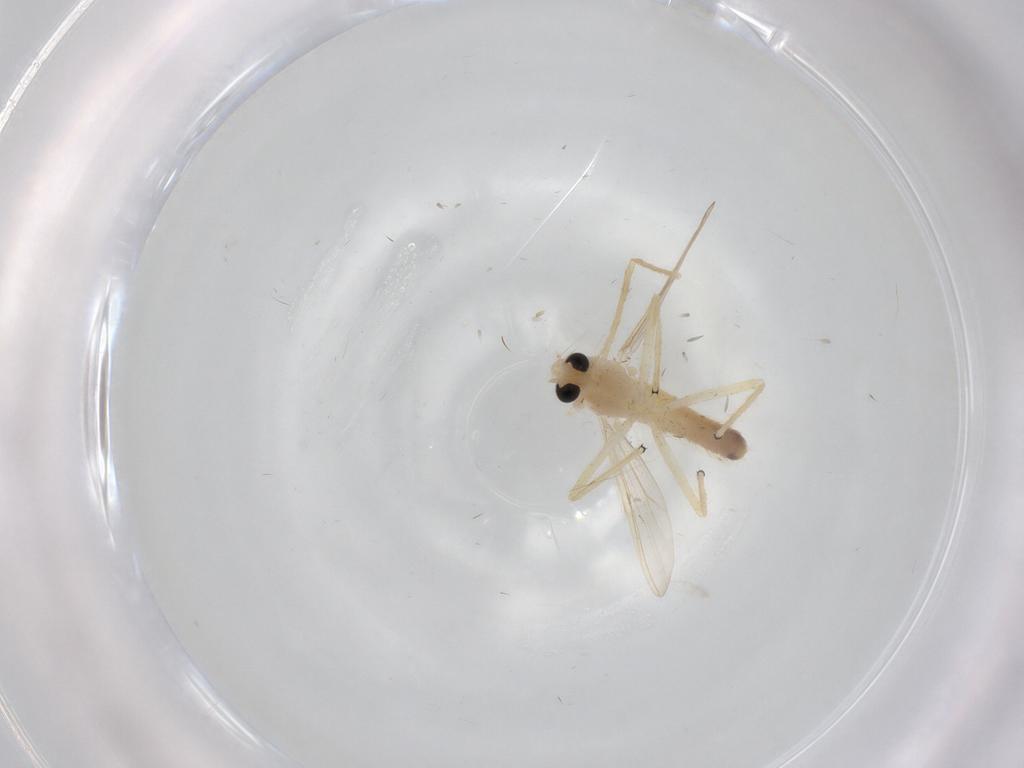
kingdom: Animalia
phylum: Arthropoda
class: Insecta
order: Diptera
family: Chironomidae
